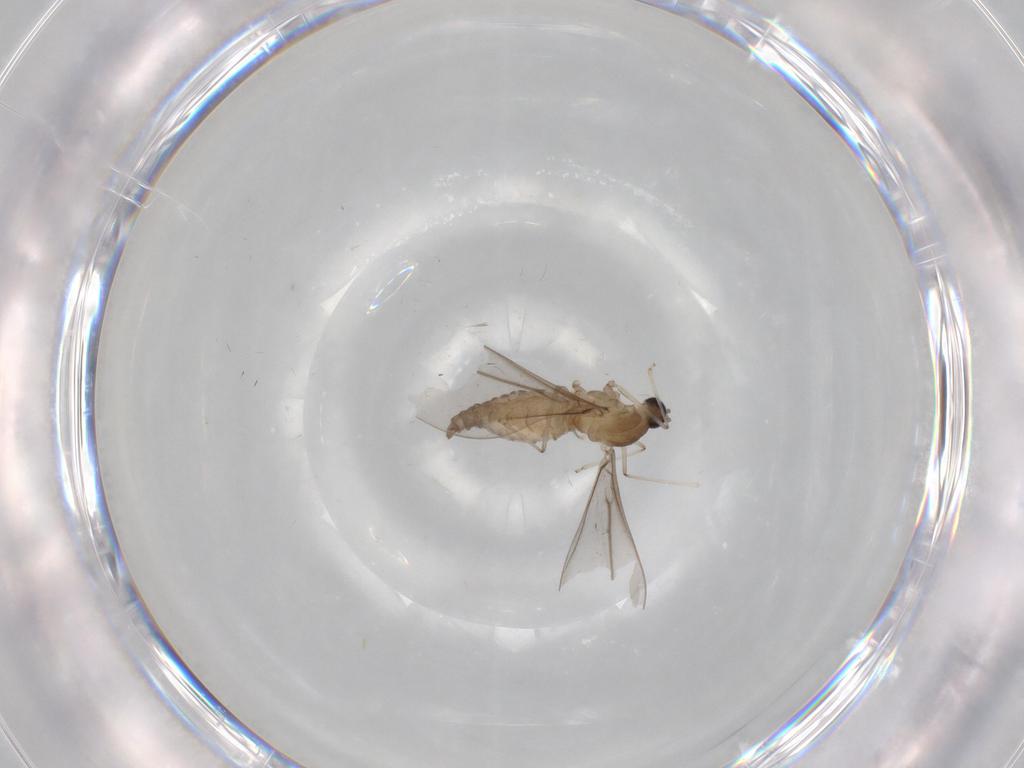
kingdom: Animalia
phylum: Arthropoda
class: Insecta
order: Diptera
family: Tabanidae
